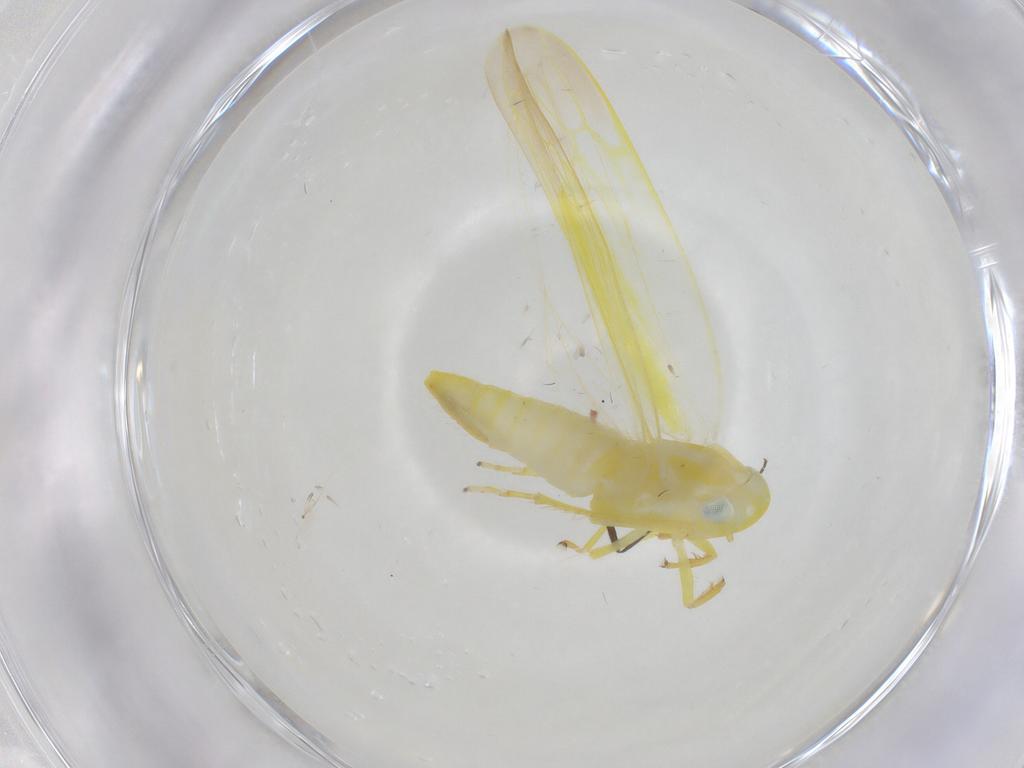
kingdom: Animalia
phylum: Arthropoda
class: Insecta
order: Hemiptera
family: Cicadellidae
